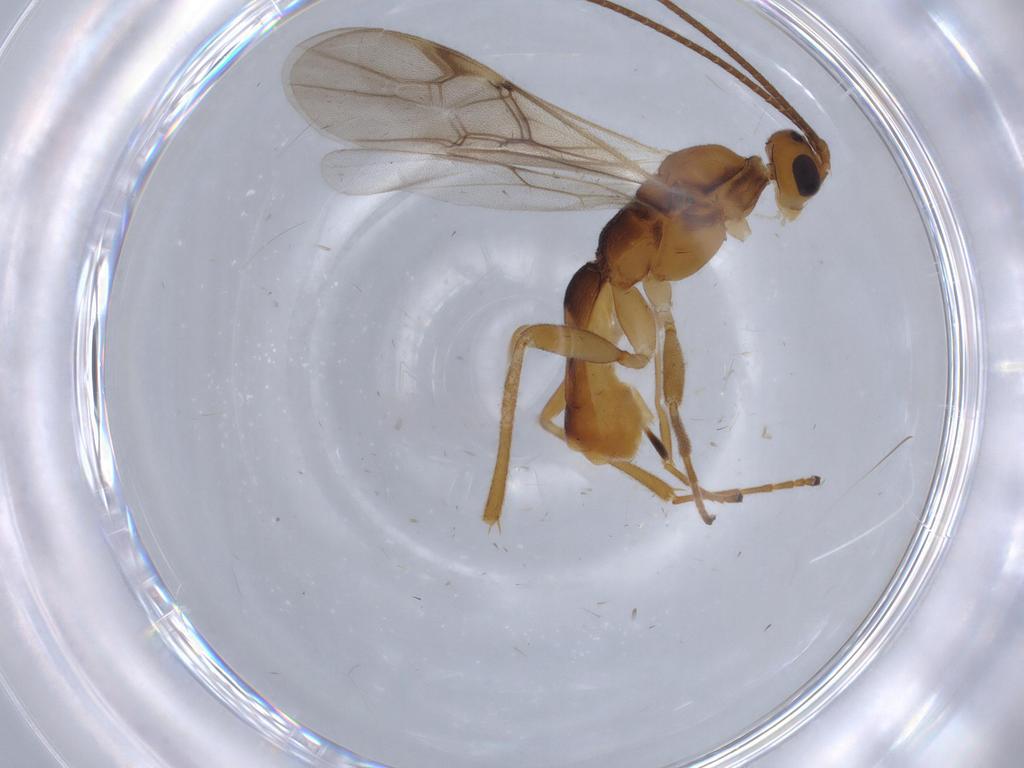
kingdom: Animalia
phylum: Arthropoda
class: Insecta
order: Hymenoptera
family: Braconidae
